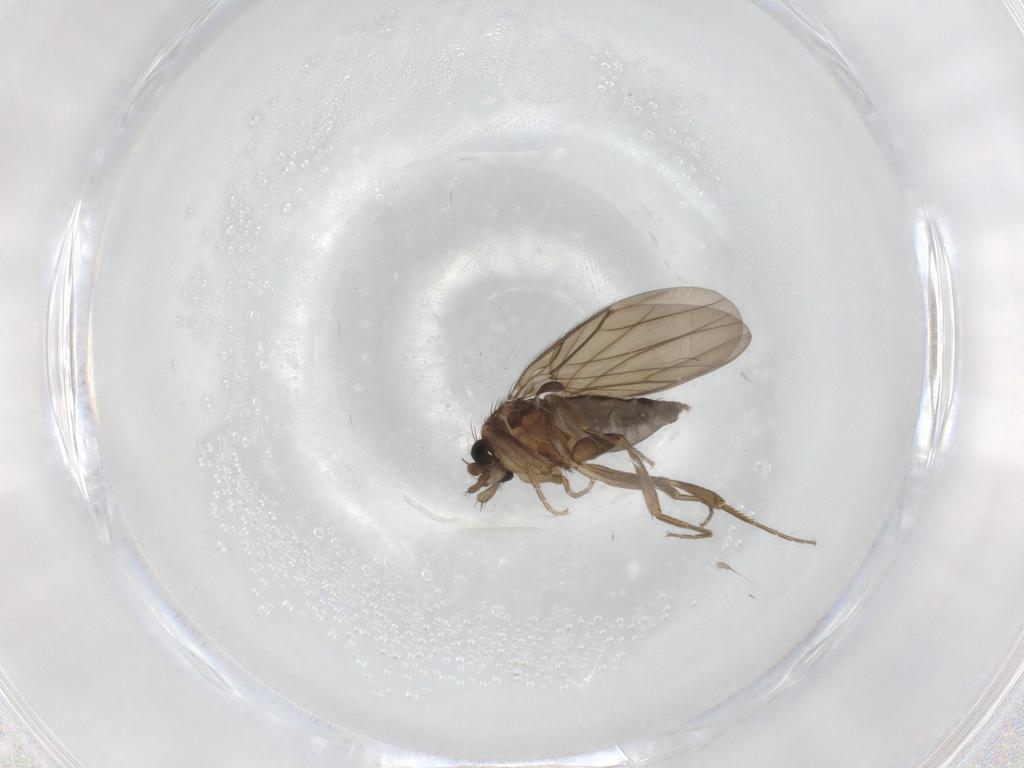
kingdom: Animalia
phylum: Arthropoda
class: Insecta
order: Diptera
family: Phoridae
